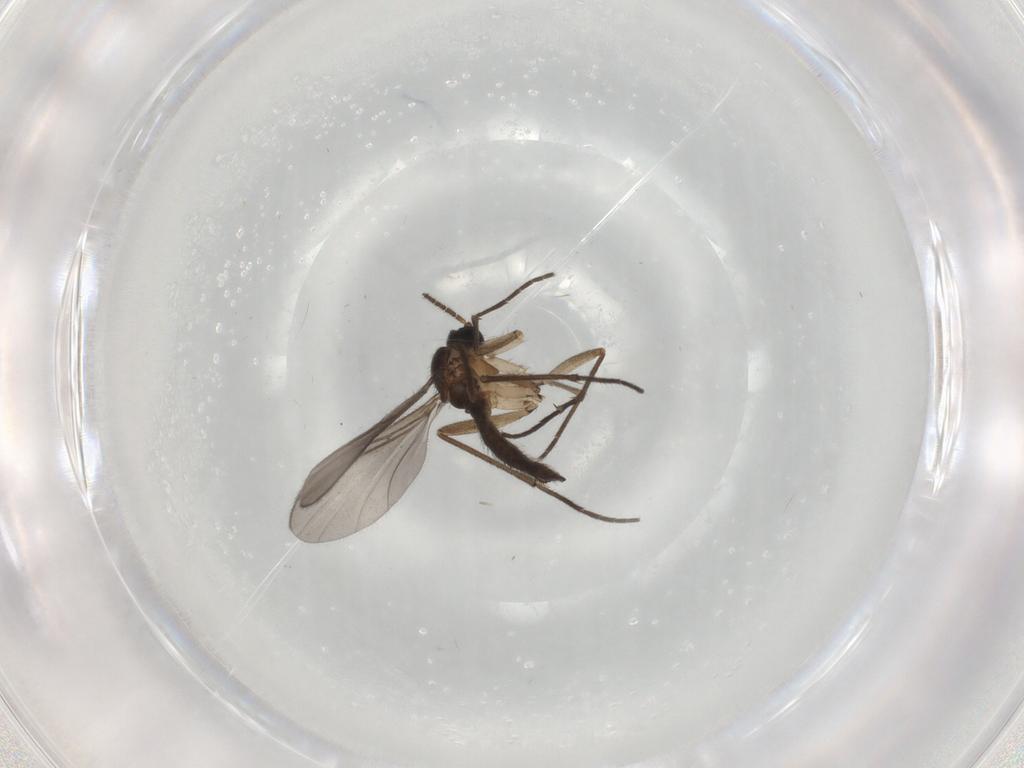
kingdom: Animalia
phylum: Arthropoda
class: Insecta
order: Diptera
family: Sciaridae
